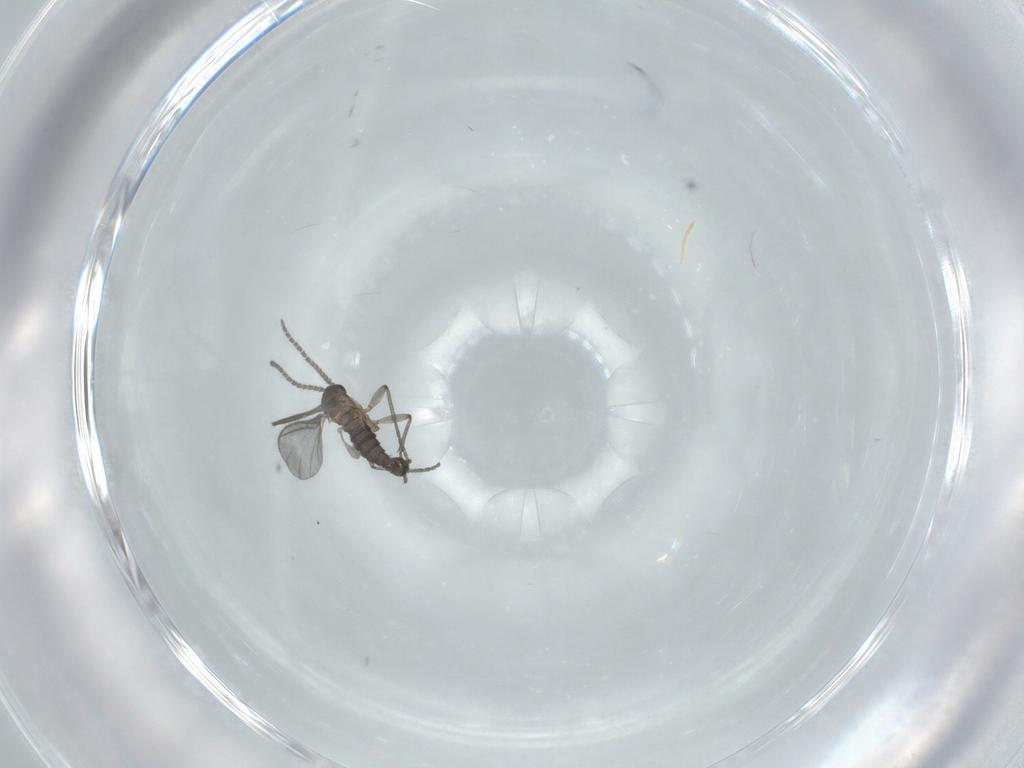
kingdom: Animalia
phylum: Arthropoda
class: Insecta
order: Diptera
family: Sciaridae
